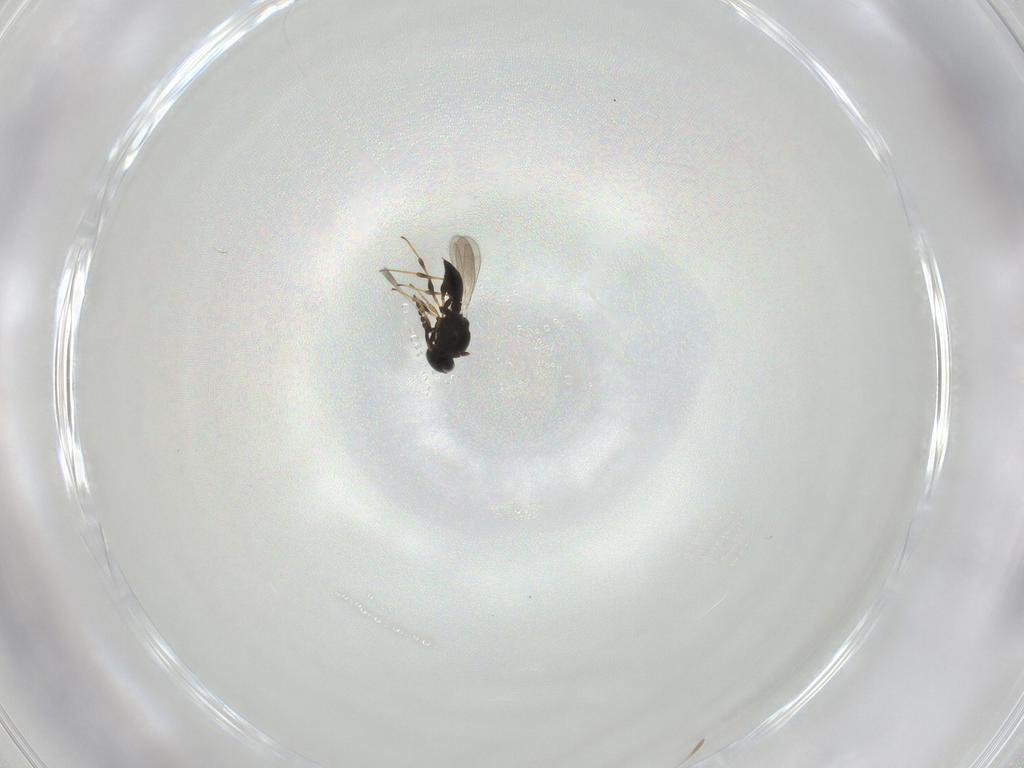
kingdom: Animalia
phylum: Arthropoda
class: Insecta
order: Hymenoptera
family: Platygastridae
